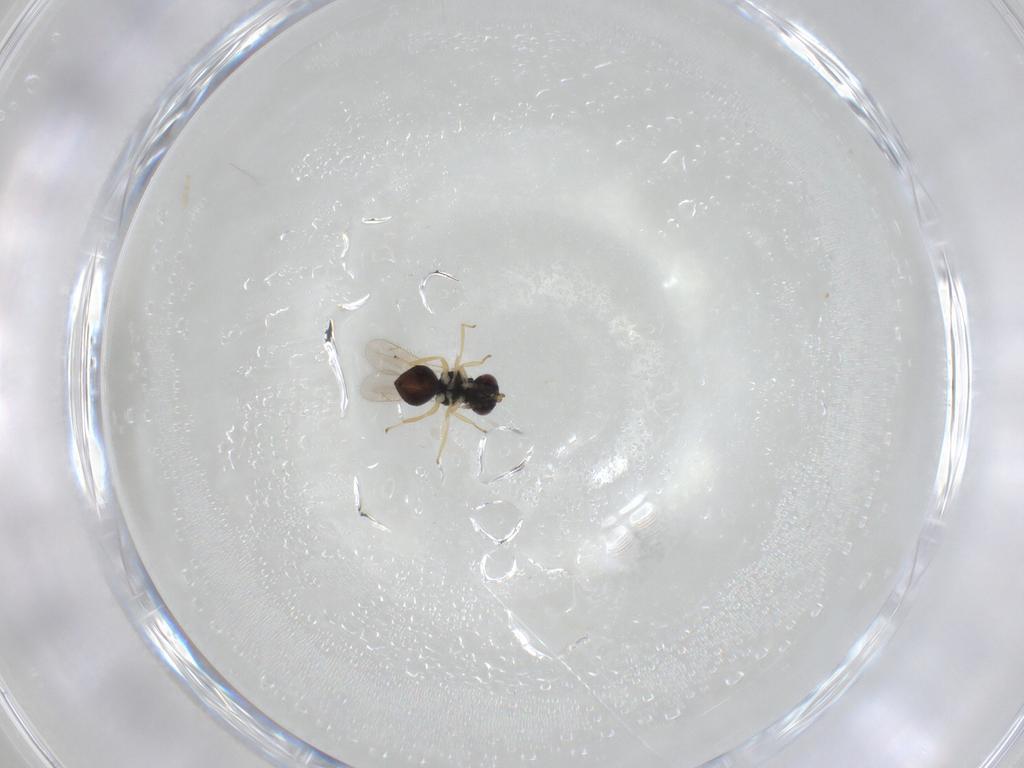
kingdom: Animalia
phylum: Arthropoda
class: Insecta
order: Hymenoptera
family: Eulophidae
